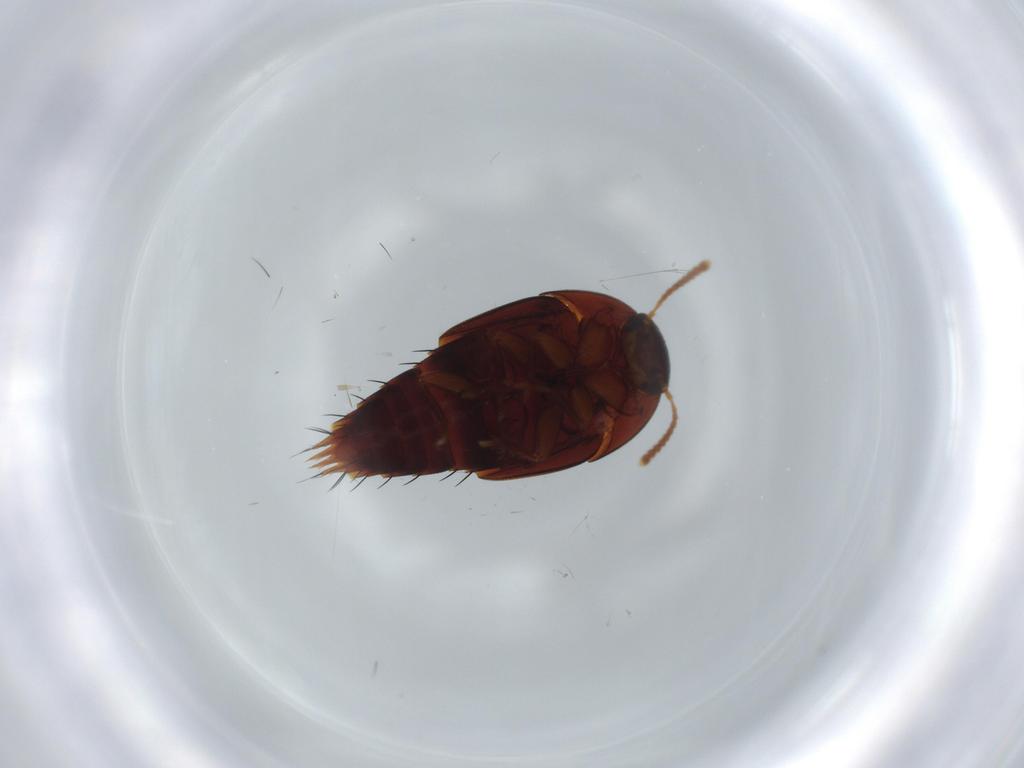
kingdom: Animalia
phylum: Arthropoda
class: Insecta
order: Coleoptera
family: Staphylinidae
